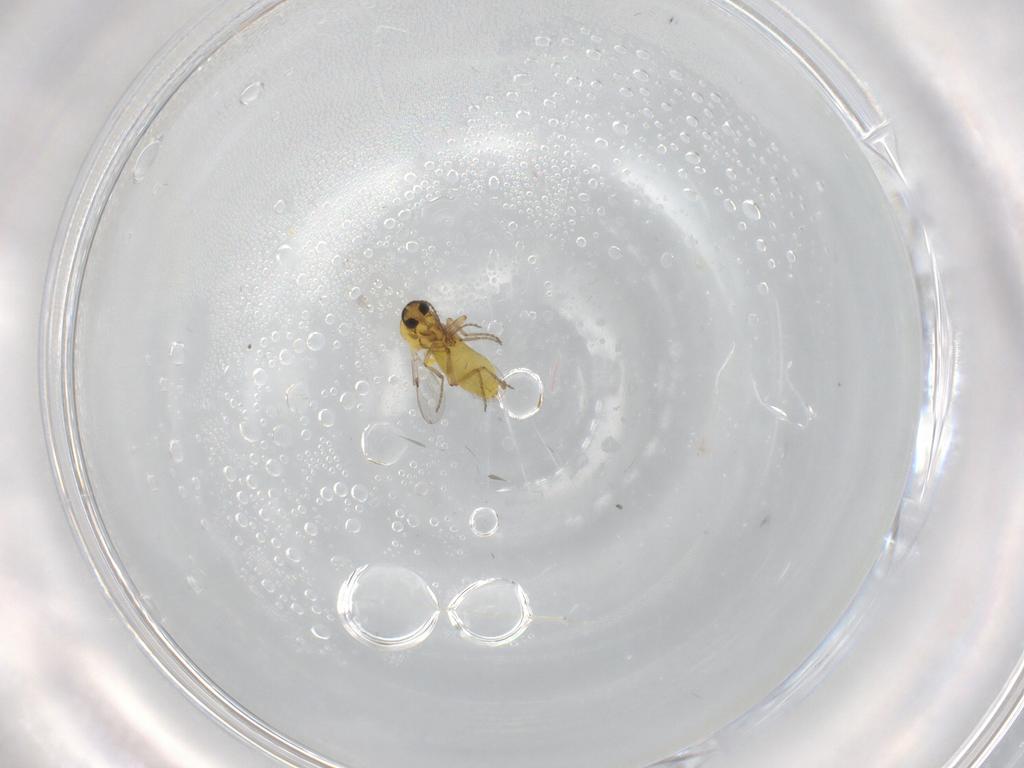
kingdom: Animalia
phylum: Arthropoda
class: Insecta
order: Diptera
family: Ceratopogonidae
